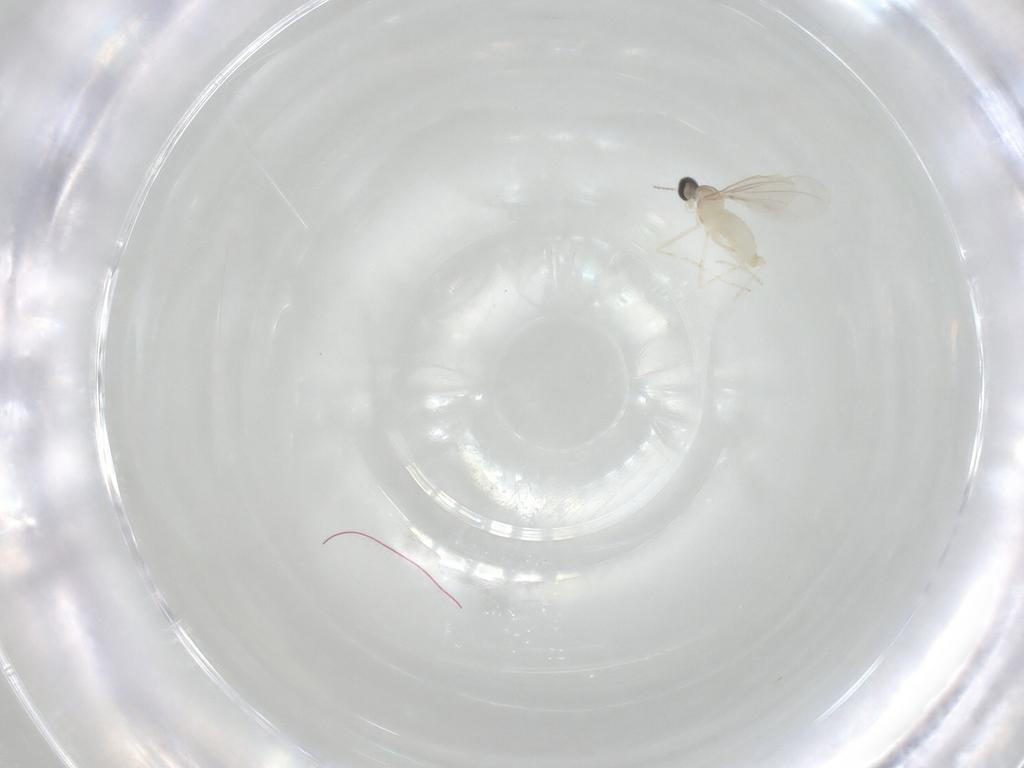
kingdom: Animalia
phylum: Arthropoda
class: Insecta
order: Diptera
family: Cecidomyiidae
